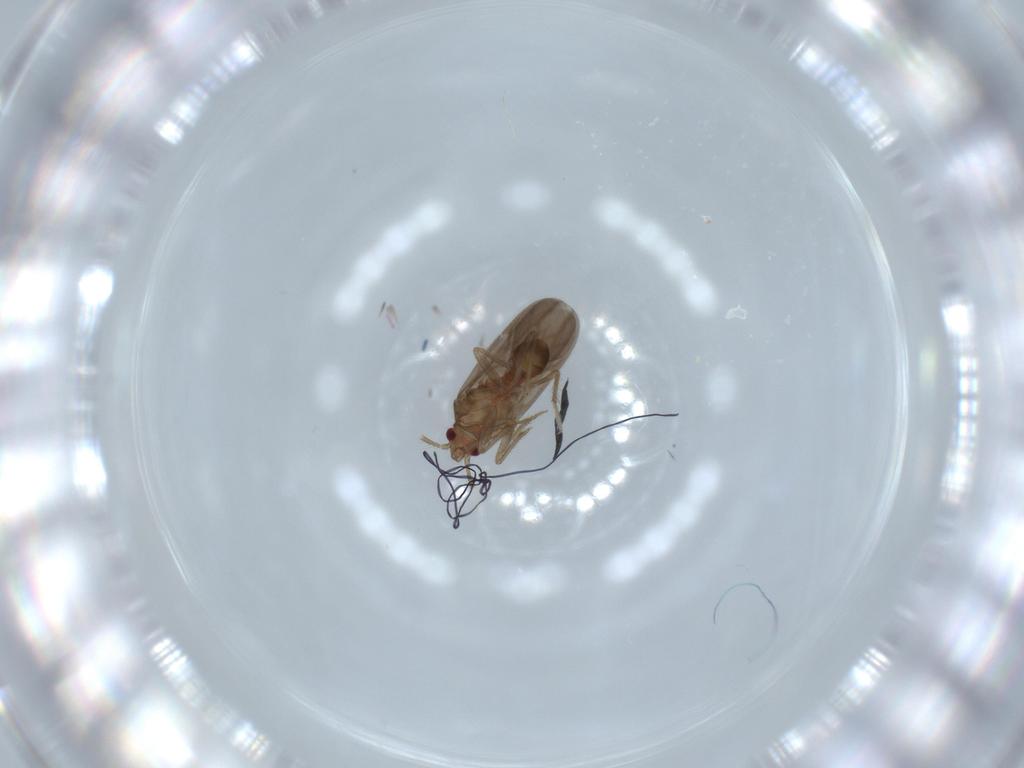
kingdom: Animalia
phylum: Arthropoda
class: Insecta
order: Hemiptera
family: Ceratocombidae
